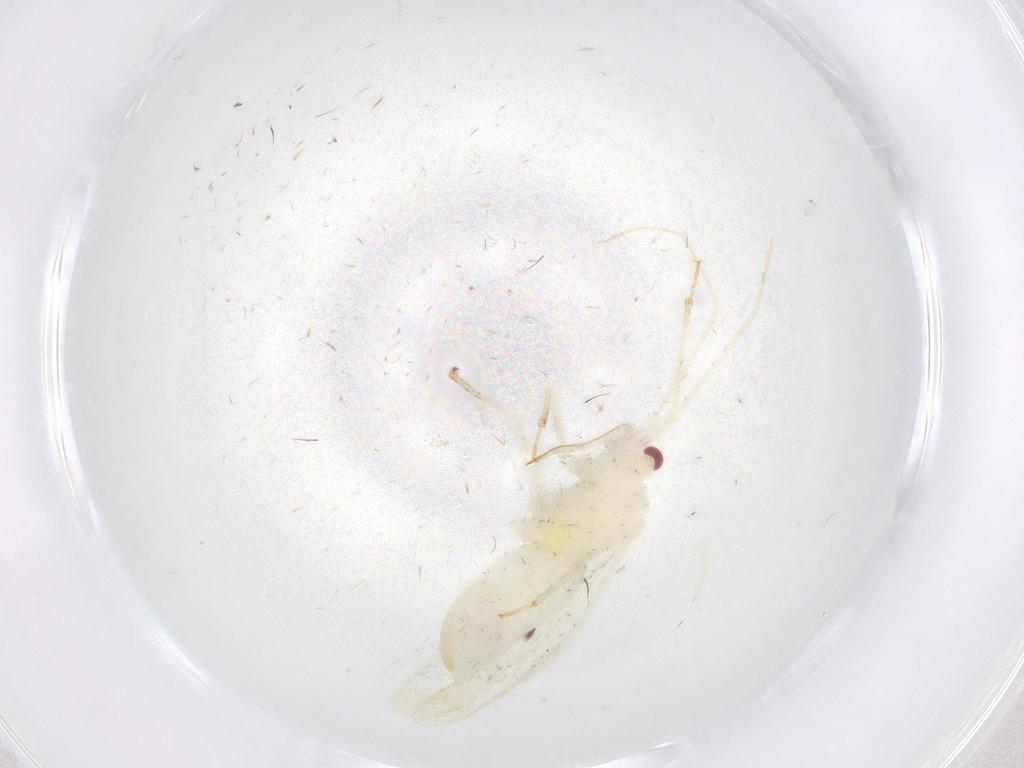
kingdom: Animalia
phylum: Arthropoda
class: Insecta
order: Hemiptera
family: Miridae
